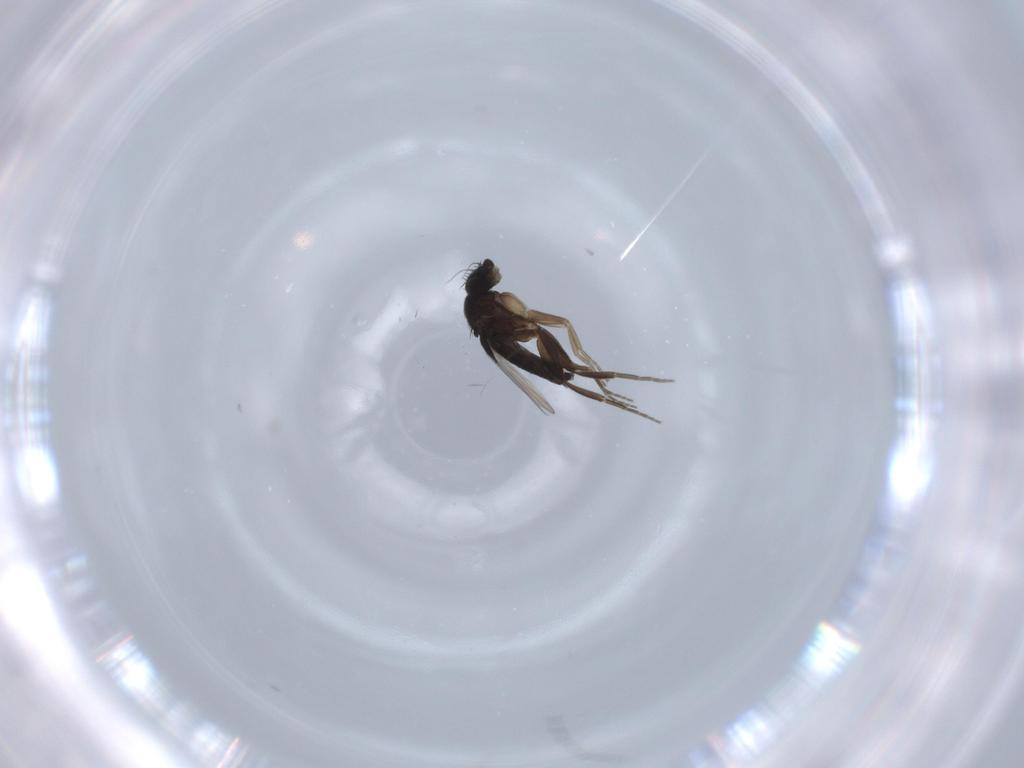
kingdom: Animalia
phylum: Arthropoda
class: Insecta
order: Diptera
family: Phoridae
